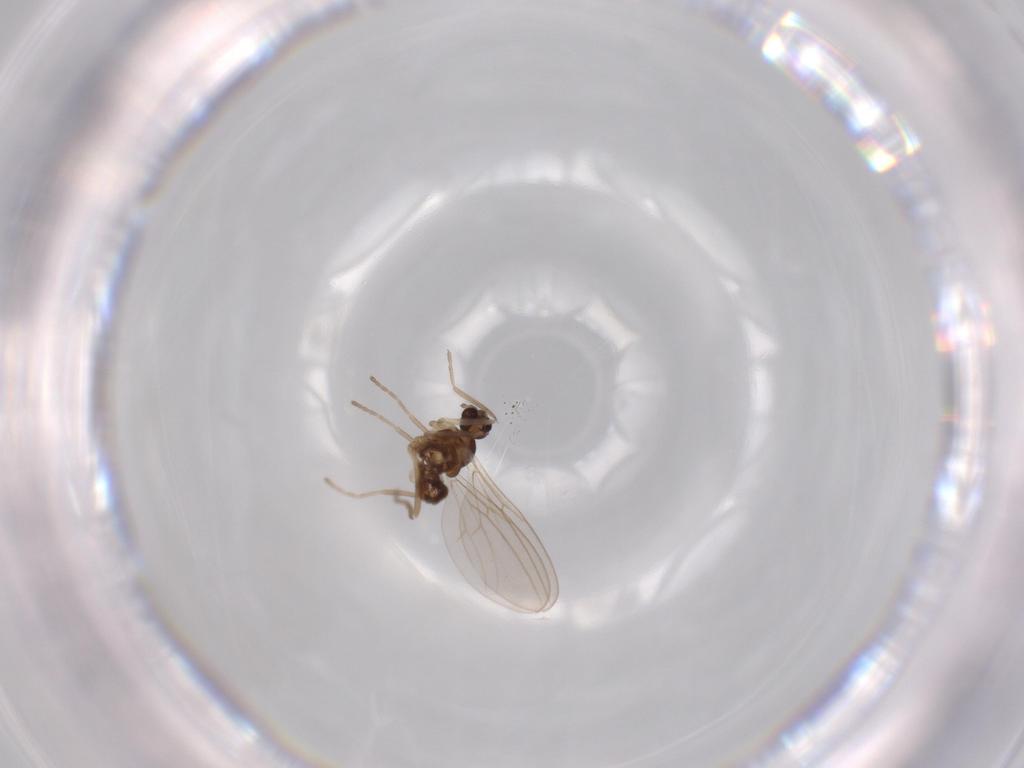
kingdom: Animalia
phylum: Arthropoda
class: Insecta
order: Diptera
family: Cecidomyiidae
